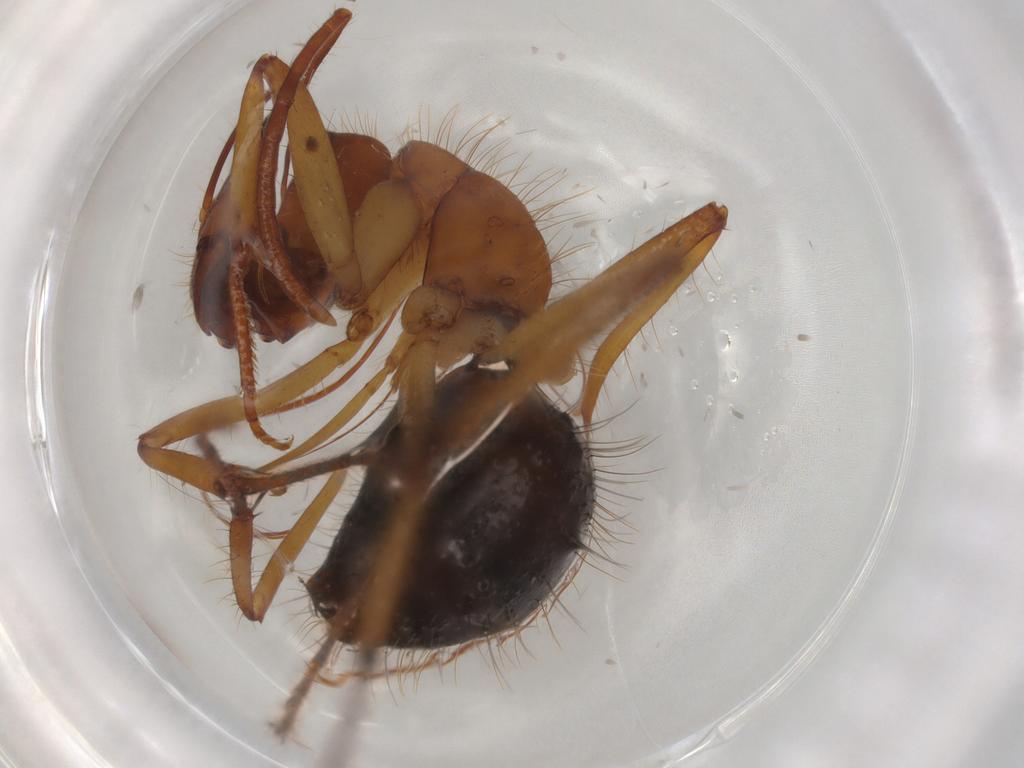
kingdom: Animalia
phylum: Arthropoda
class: Insecta
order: Hymenoptera
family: Formicidae
